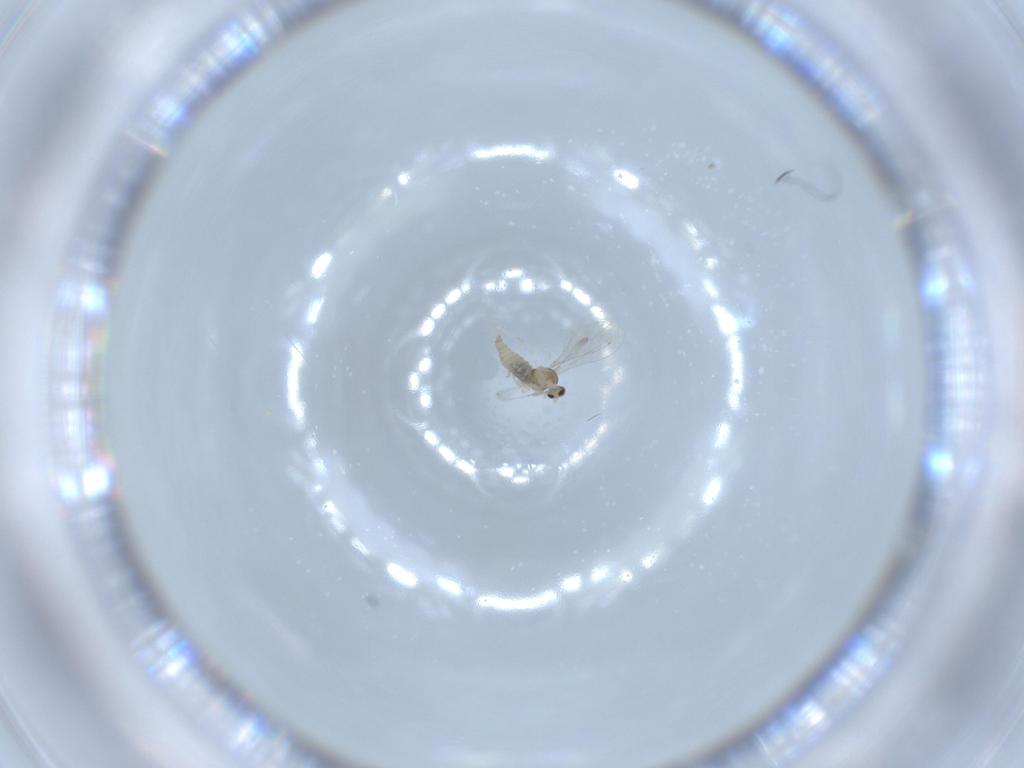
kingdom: Animalia
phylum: Arthropoda
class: Insecta
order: Diptera
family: Cecidomyiidae
